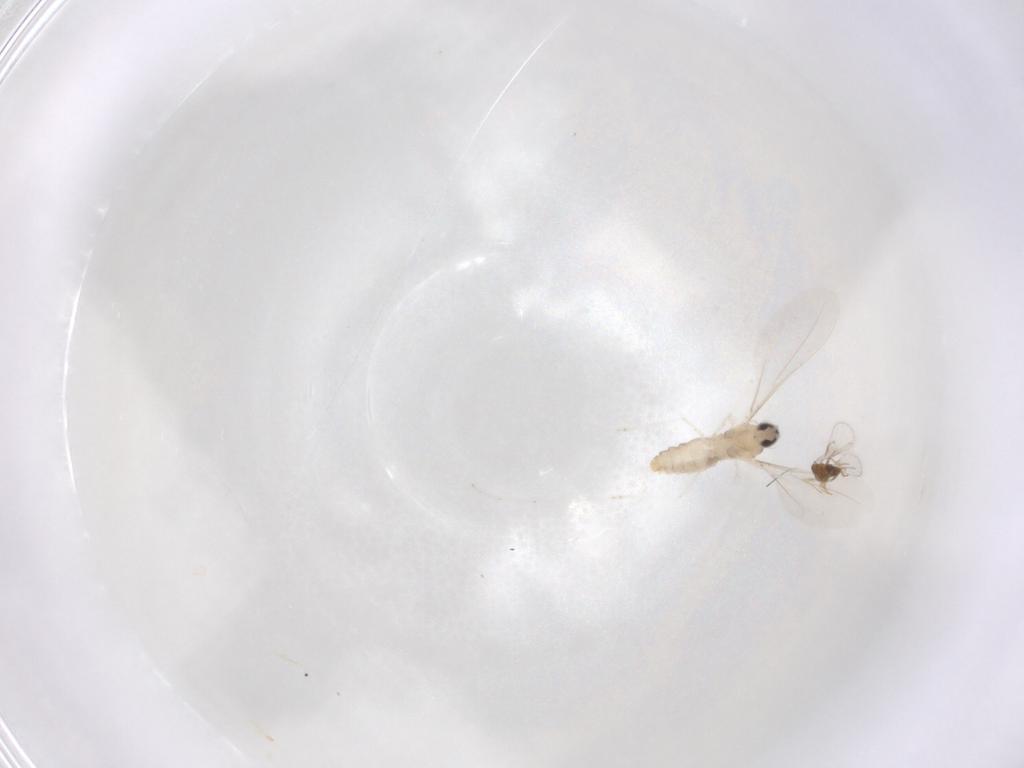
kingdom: Animalia
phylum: Arthropoda
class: Insecta
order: Diptera
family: Cecidomyiidae
